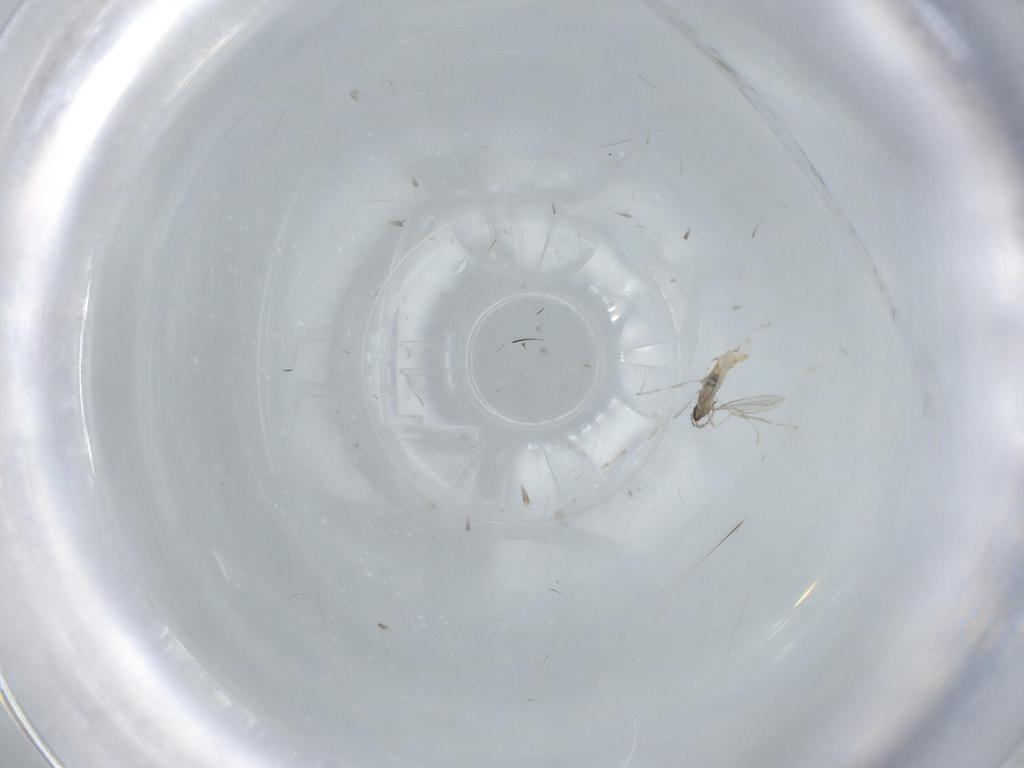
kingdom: Animalia
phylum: Arthropoda
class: Insecta
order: Diptera
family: Cecidomyiidae
